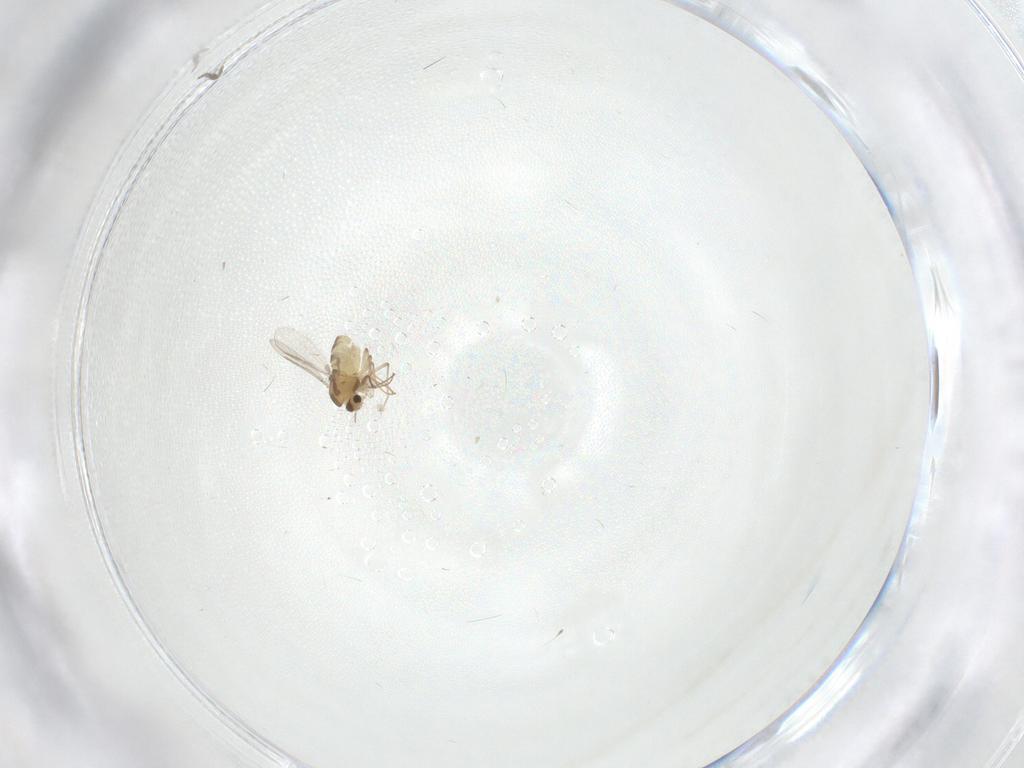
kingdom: Animalia
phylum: Arthropoda
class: Insecta
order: Diptera
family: Chironomidae
